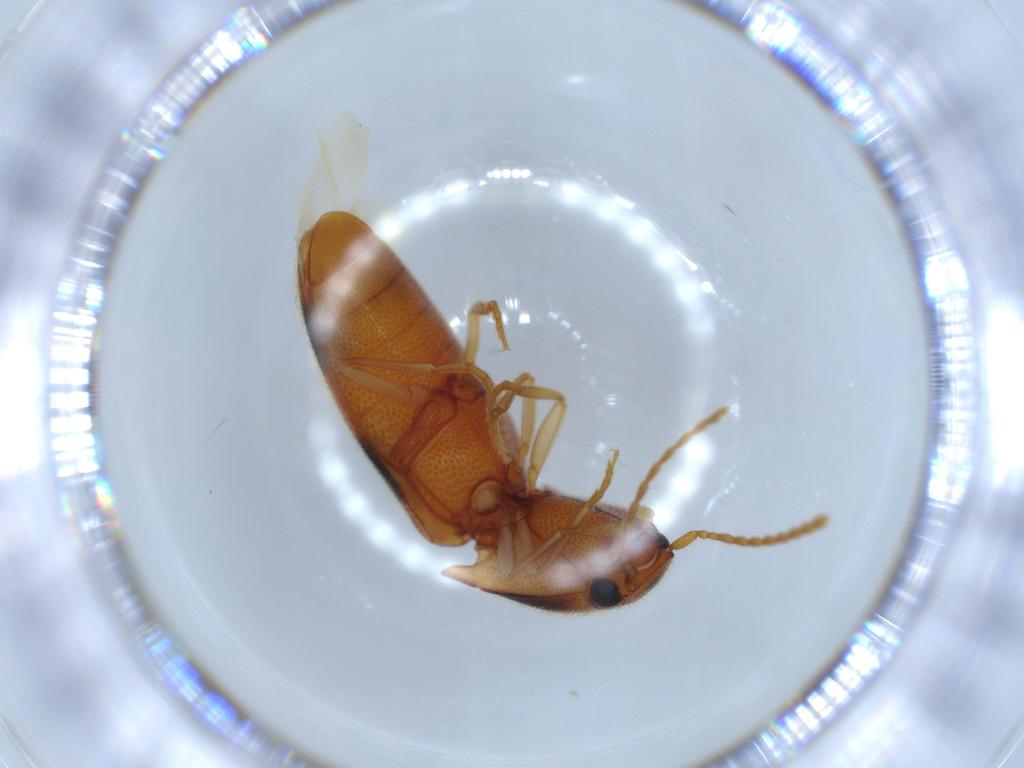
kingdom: Animalia
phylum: Arthropoda
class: Insecta
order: Coleoptera
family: Elateridae
